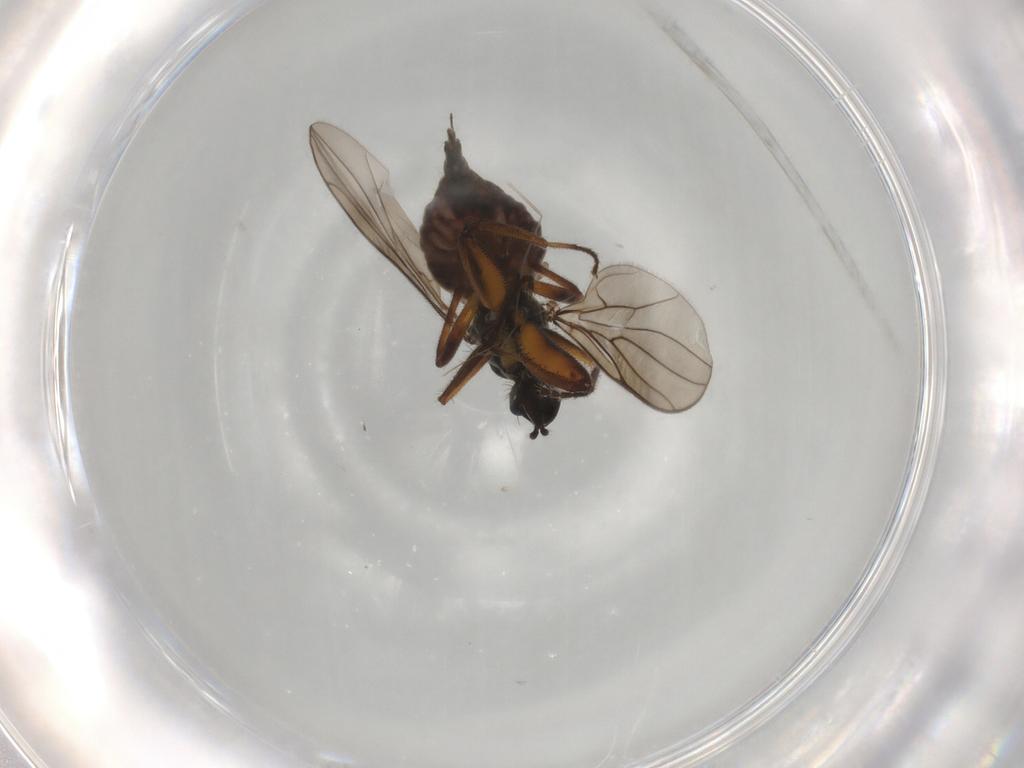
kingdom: Animalia
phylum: Arthropoda
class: Insecta
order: Diptera
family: Hybotidae
